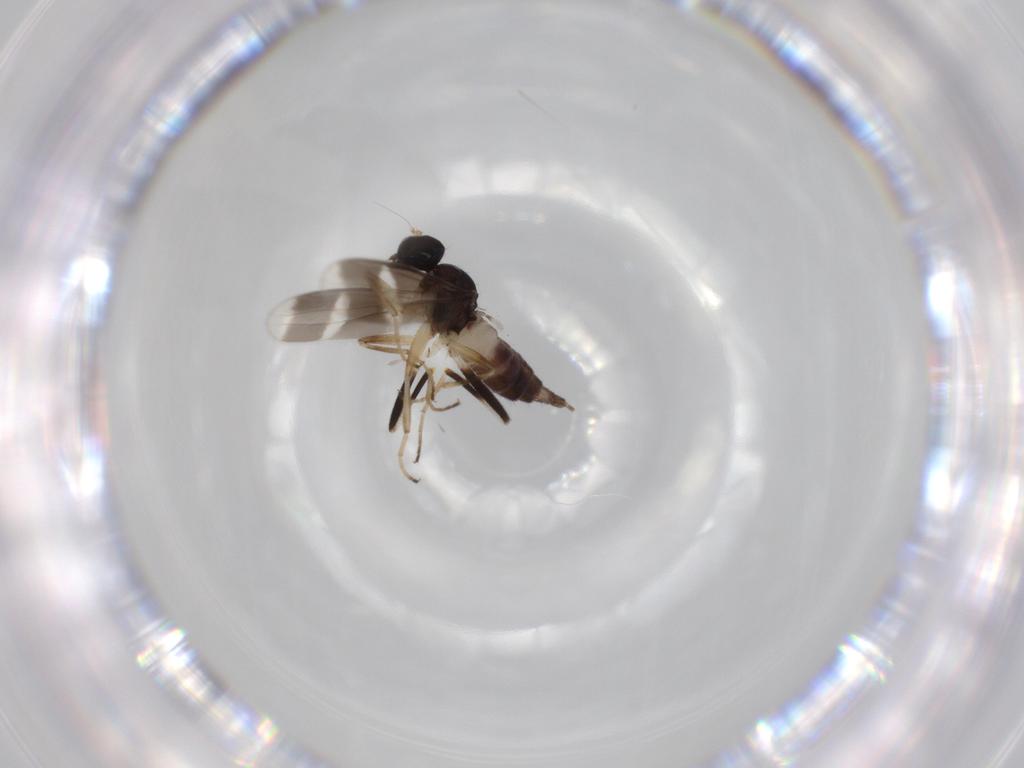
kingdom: Animalia
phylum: Arthropoda
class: Insecta
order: Diptera
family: Hybotidae
